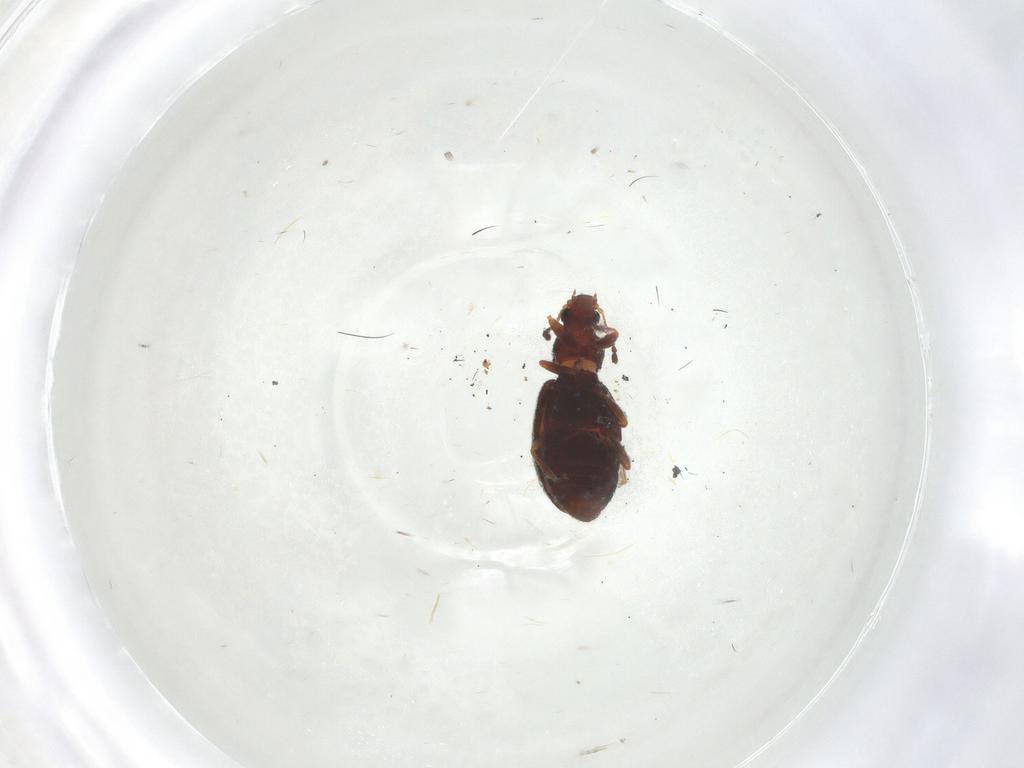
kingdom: Animalia
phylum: Arthropoda
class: Insecta
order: Coleoptera
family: Latridiidae
